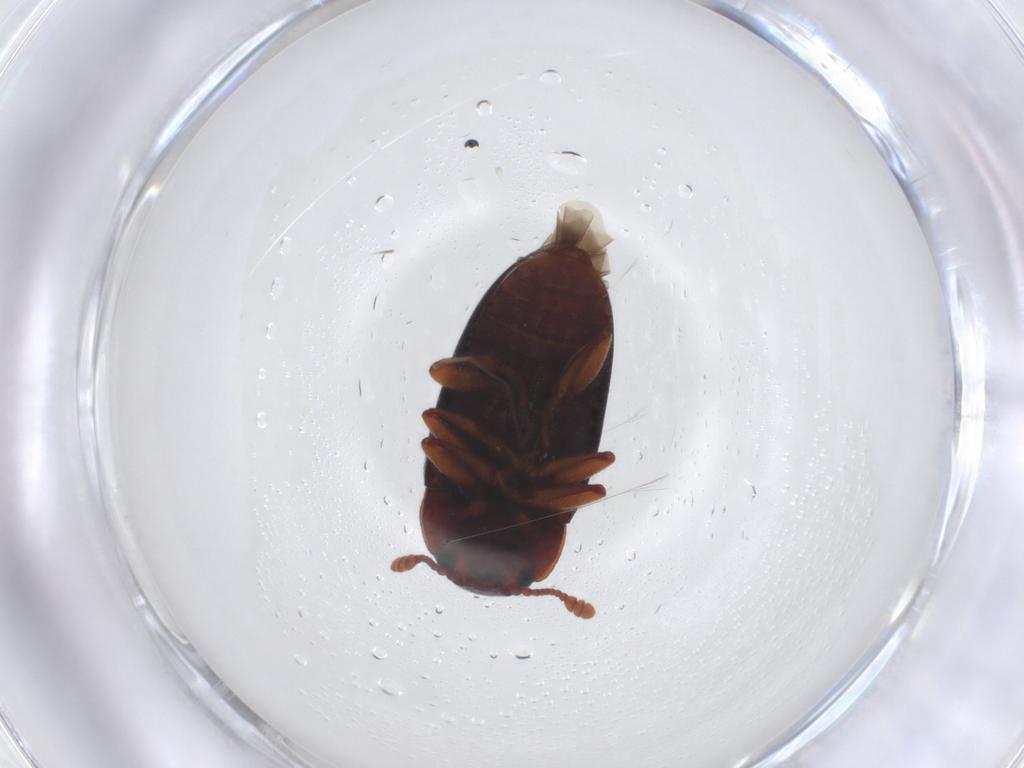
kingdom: Animalia
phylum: Arthropoda
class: Insecta
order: Coleoptera
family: Erotylidae
